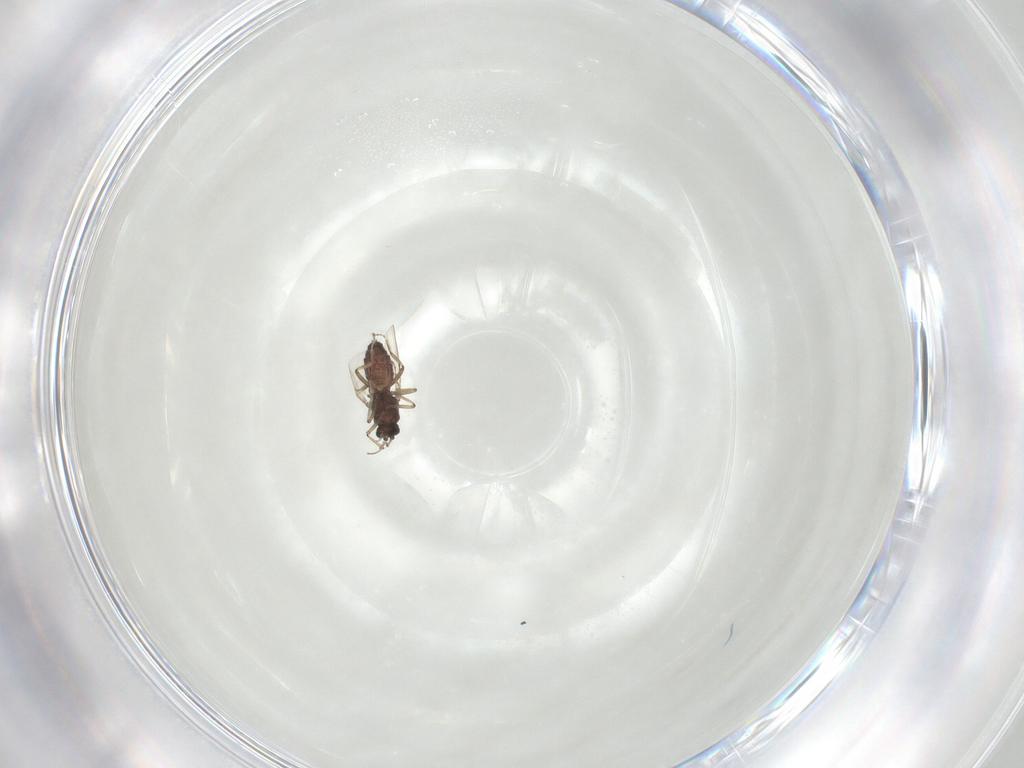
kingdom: Animalia
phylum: Arthropoda
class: Insecta
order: Diptera
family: Ceratopogonidae
